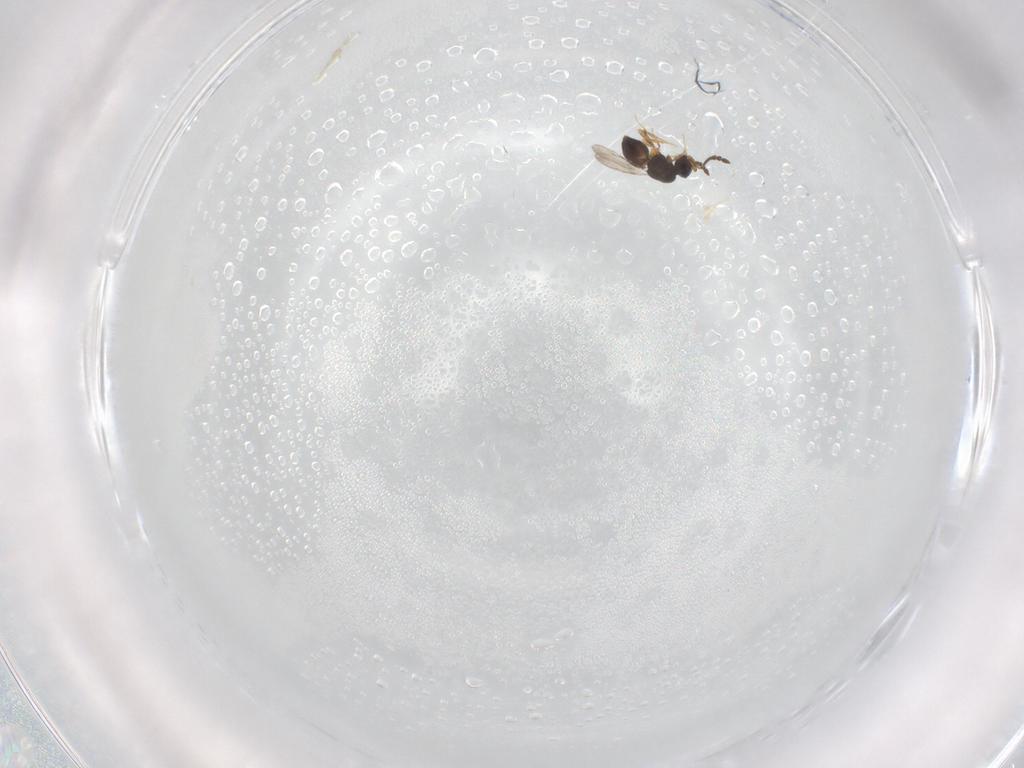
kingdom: Animalia
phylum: Arthropoda
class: Insecta
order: Hymenoptera
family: Ceraphronidae
